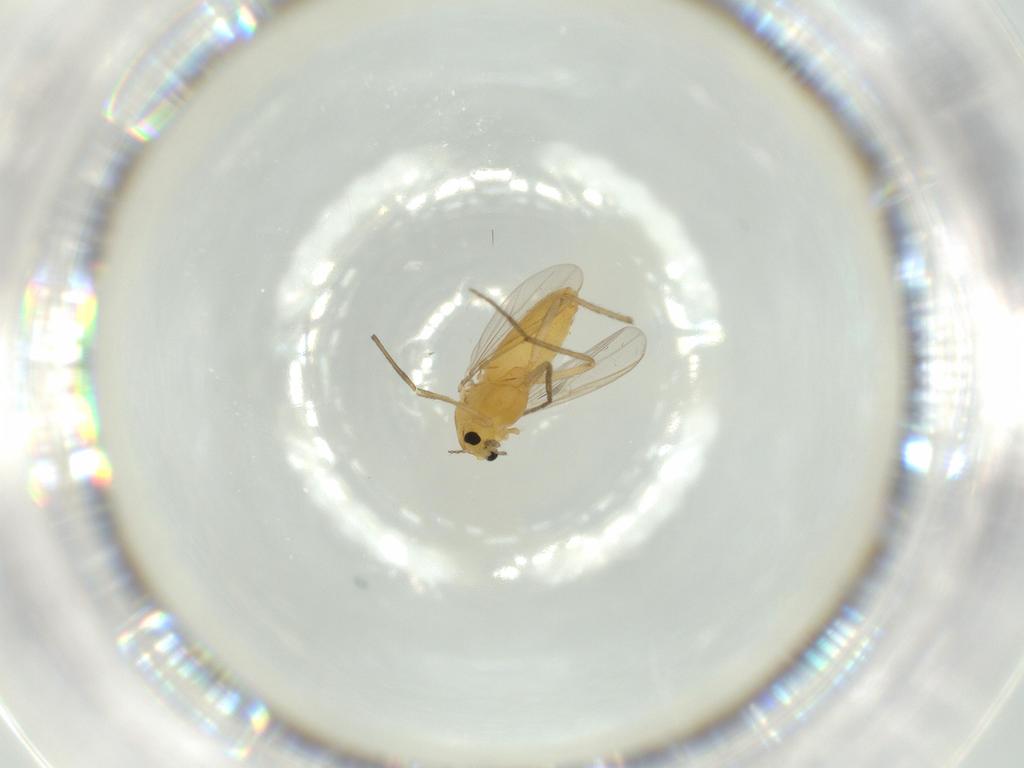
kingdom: Animalia
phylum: Arthropoda
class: Insecta
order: Diptera
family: Chironomidae
